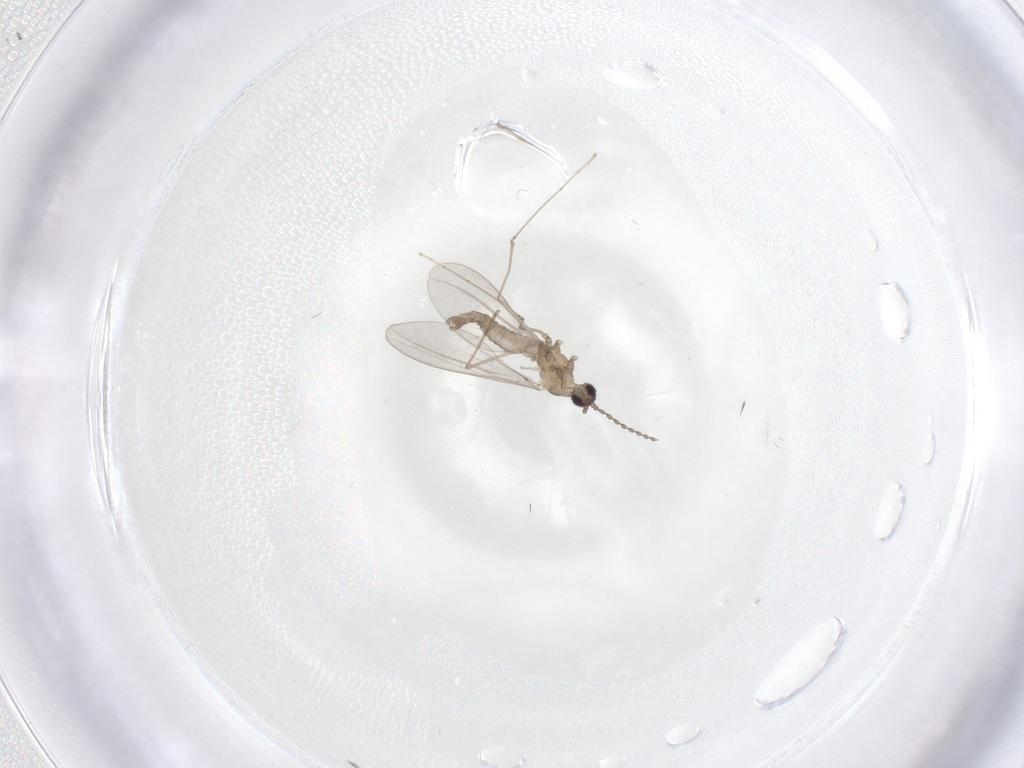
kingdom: Animalia
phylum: Arthropoda
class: Insecta
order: Diptera
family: Cecidomyiidae
